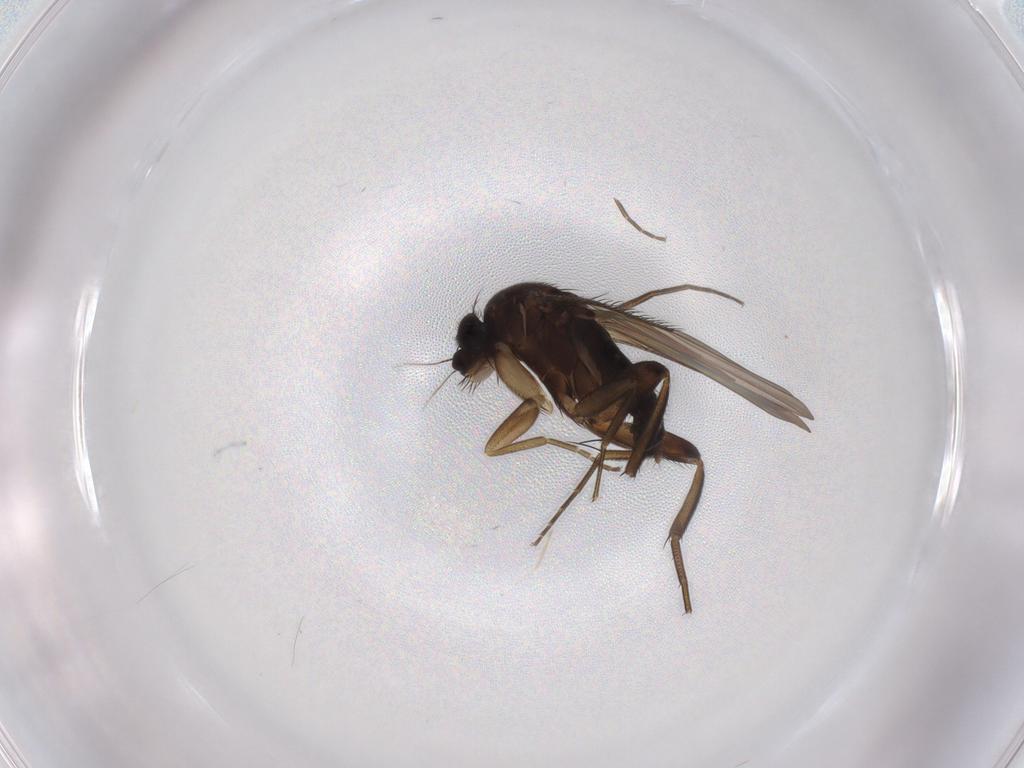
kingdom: Animalia
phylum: Arthropoda
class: Insecta
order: Diptera
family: Phoridae
